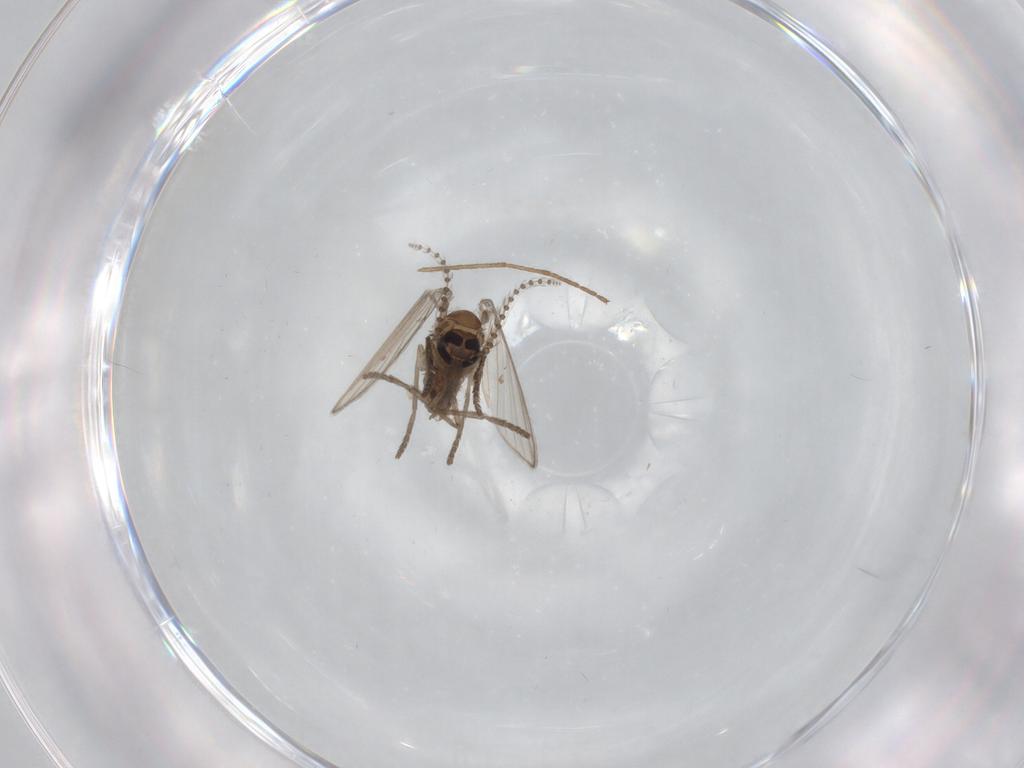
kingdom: Animalia
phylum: Arthropoda
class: Insecta
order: Diptera
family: Psychodidae
